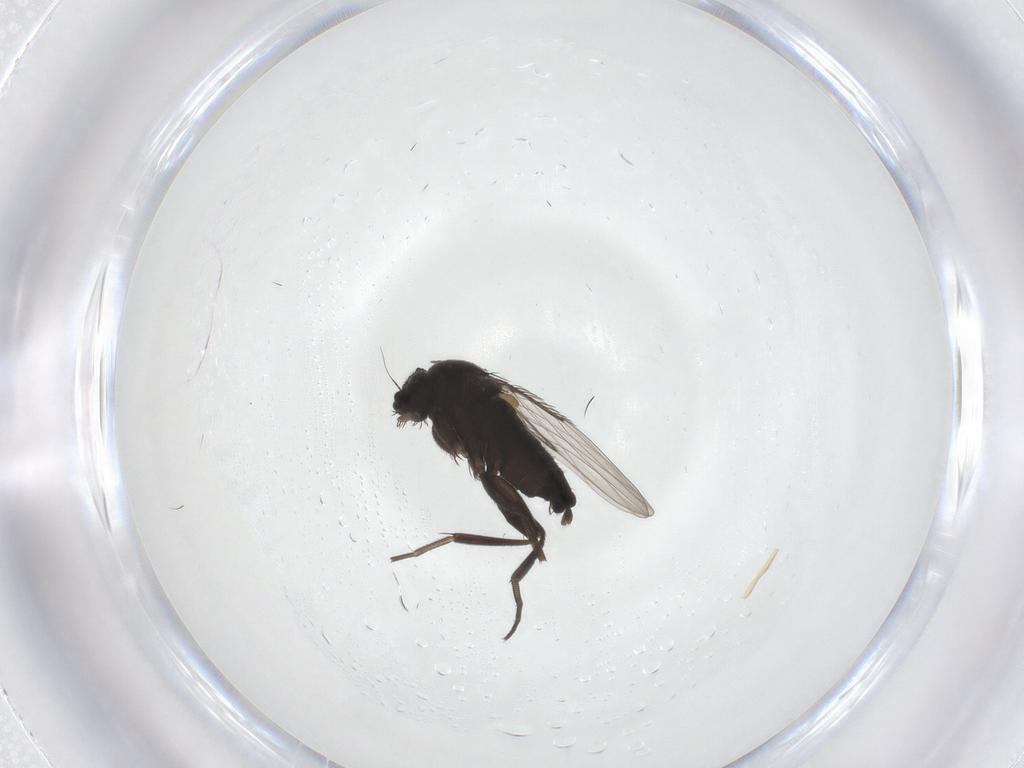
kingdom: Animalia
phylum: Arthropoda
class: Insecta
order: Diptera
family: Phoridae
